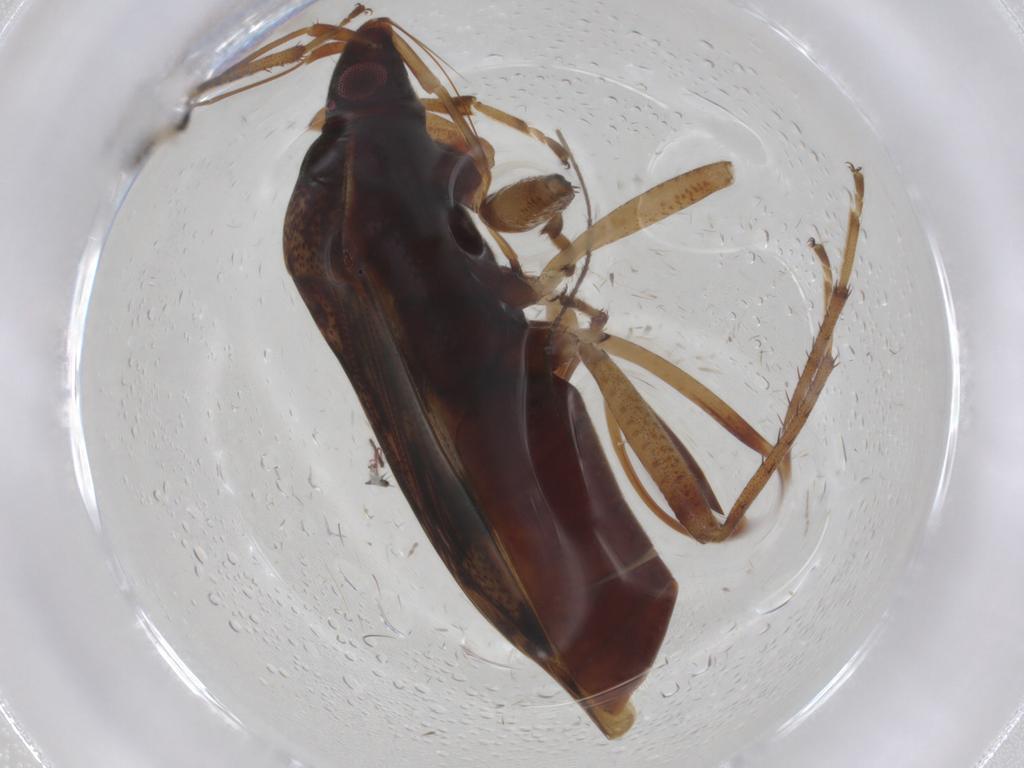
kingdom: Animalia
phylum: Arthropoda
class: Insecta
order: Hemiptera
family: Rhyparochromidae
